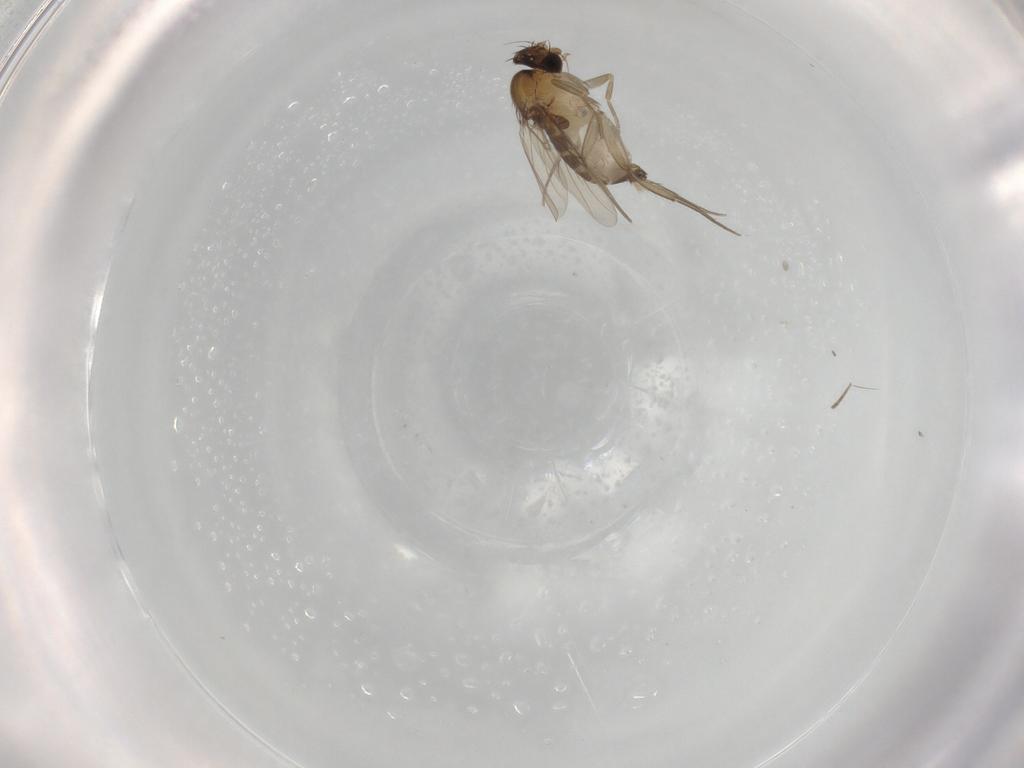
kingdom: Animalia
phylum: Arthropoda
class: Insecta
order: Diptera
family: Phoridae
